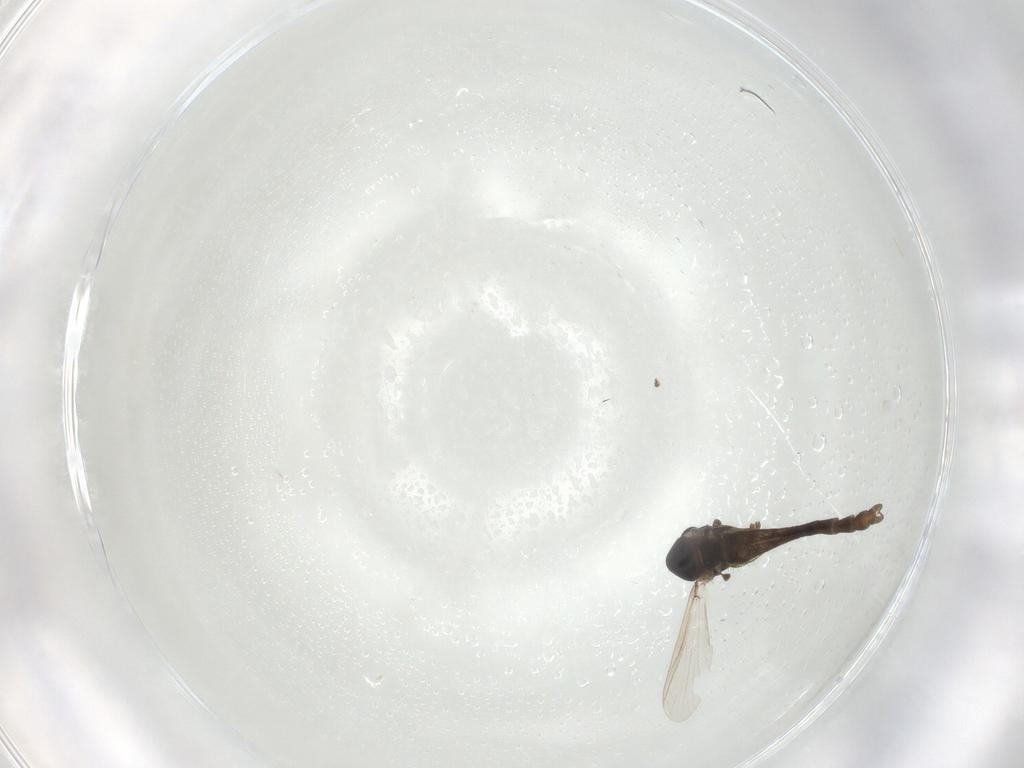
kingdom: Animalia
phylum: Arthropoda
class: Insecta
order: Diptera
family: Chironomidae
